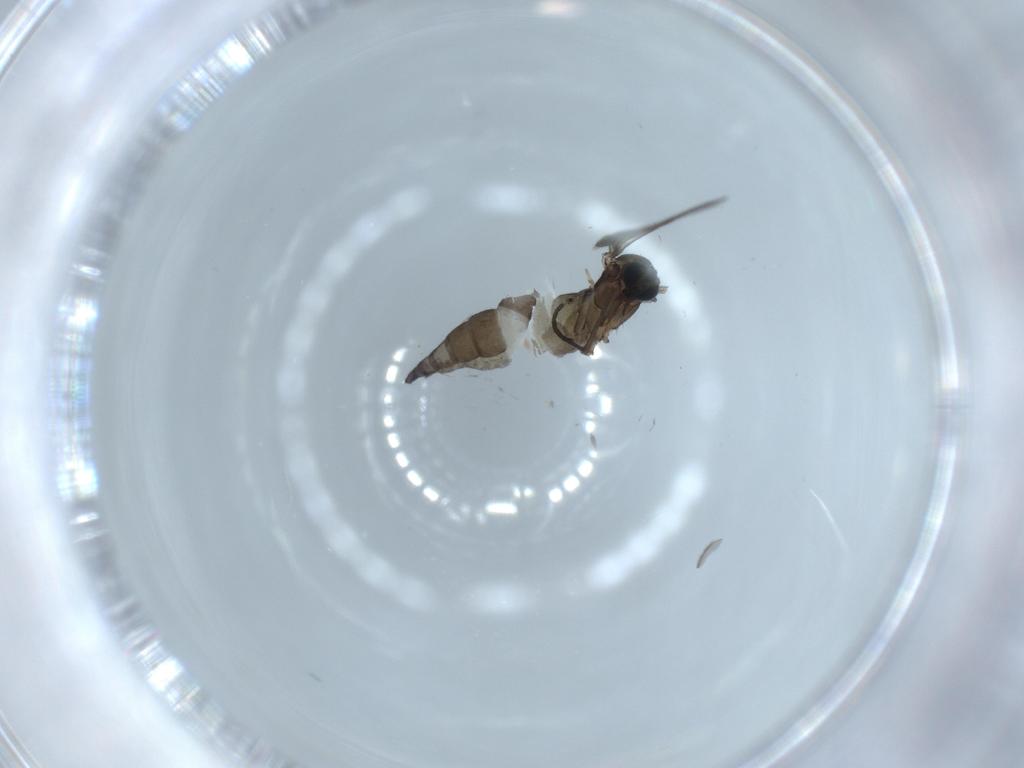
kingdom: Animalia
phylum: Arthropoda
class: Insecta
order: Diptera
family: Sciaridae
